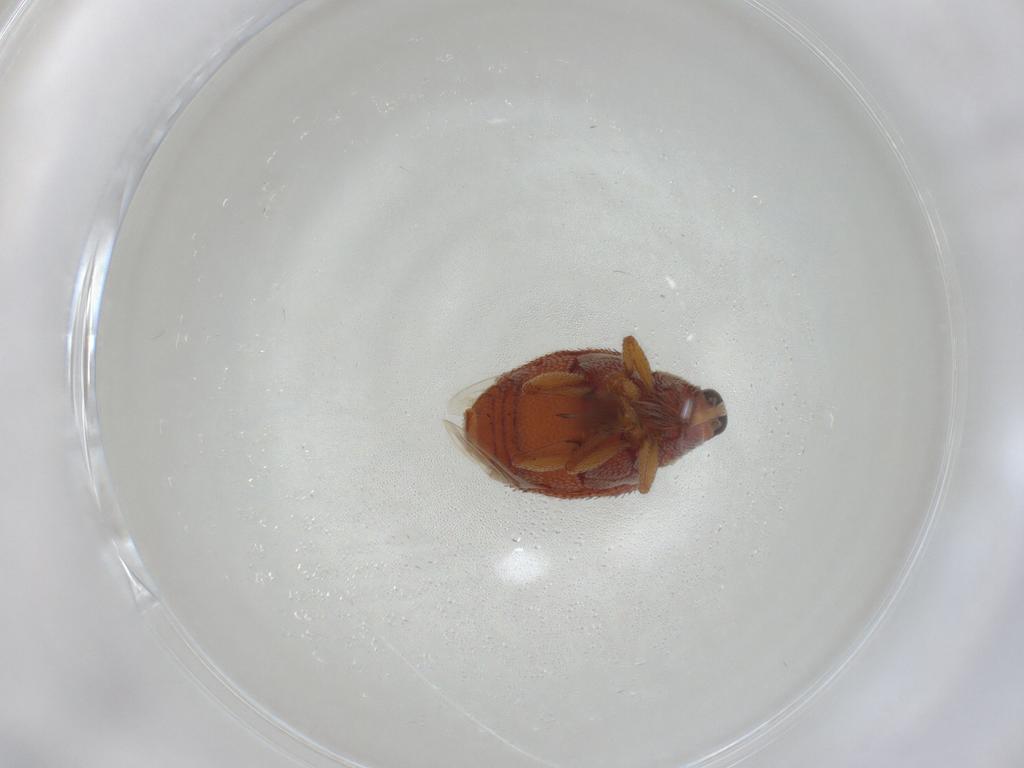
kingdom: Animalia
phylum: Arthropoda
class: Insecta
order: Coleoptera
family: Curculionidae
